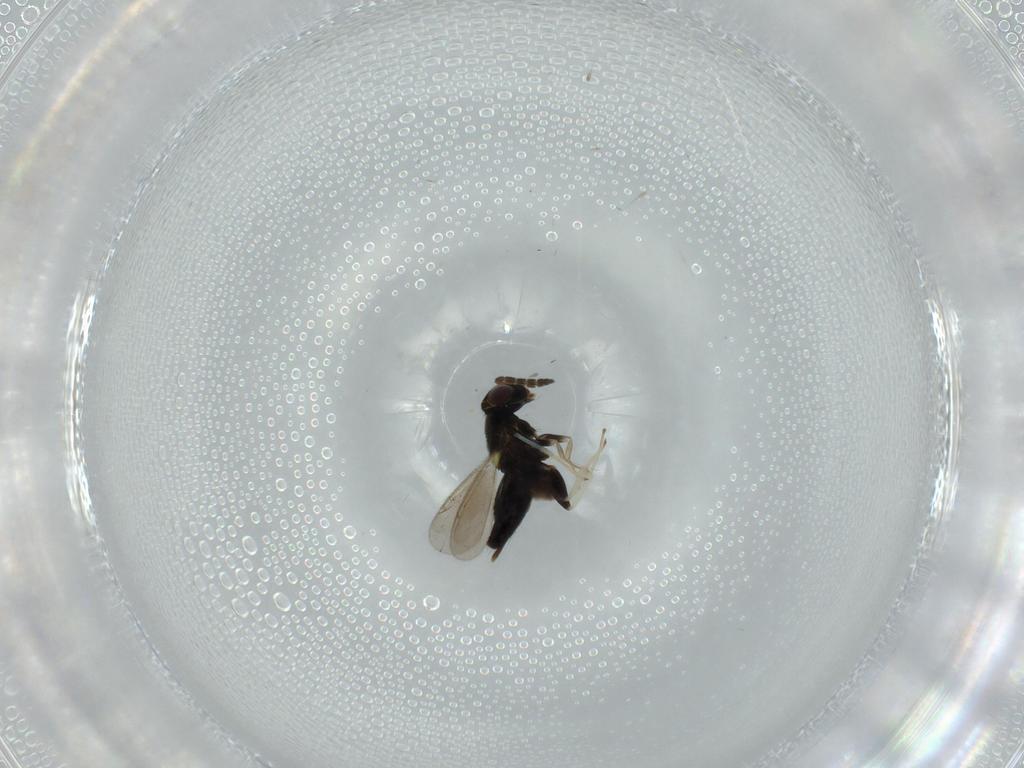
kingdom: Animalia
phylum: Arthropoda
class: Insecta
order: Hymenoptera
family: Aphelinidae
